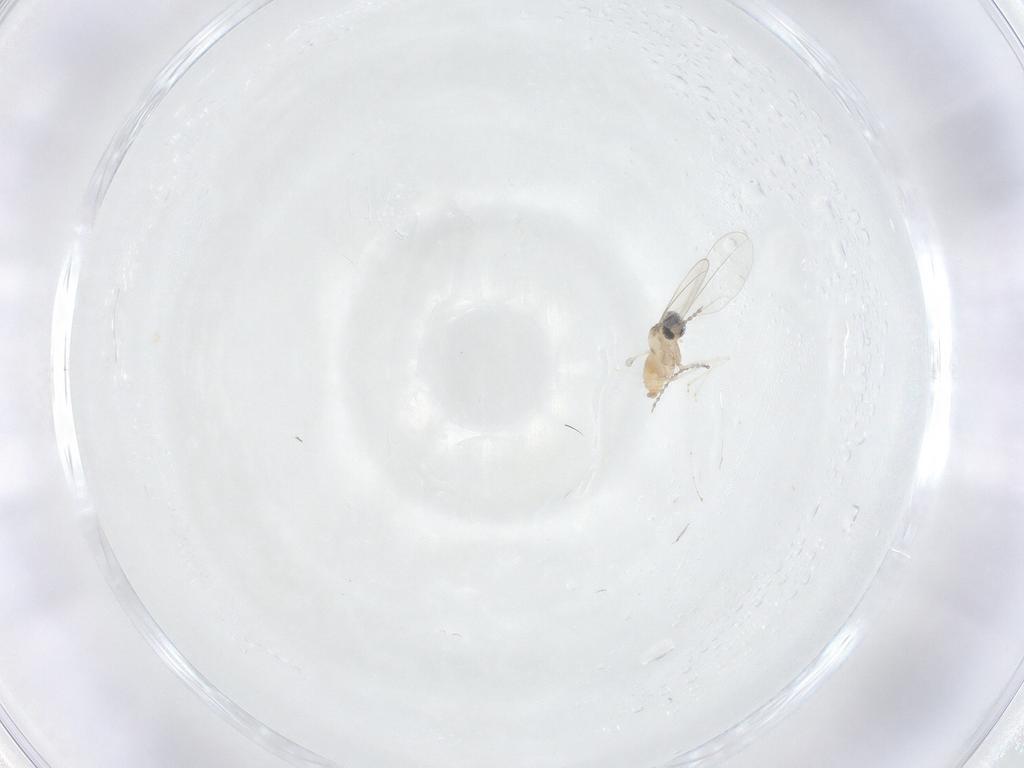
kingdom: Animalia
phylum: Arthropoda
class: Insecta
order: Diptera
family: Cecidomyiidae
